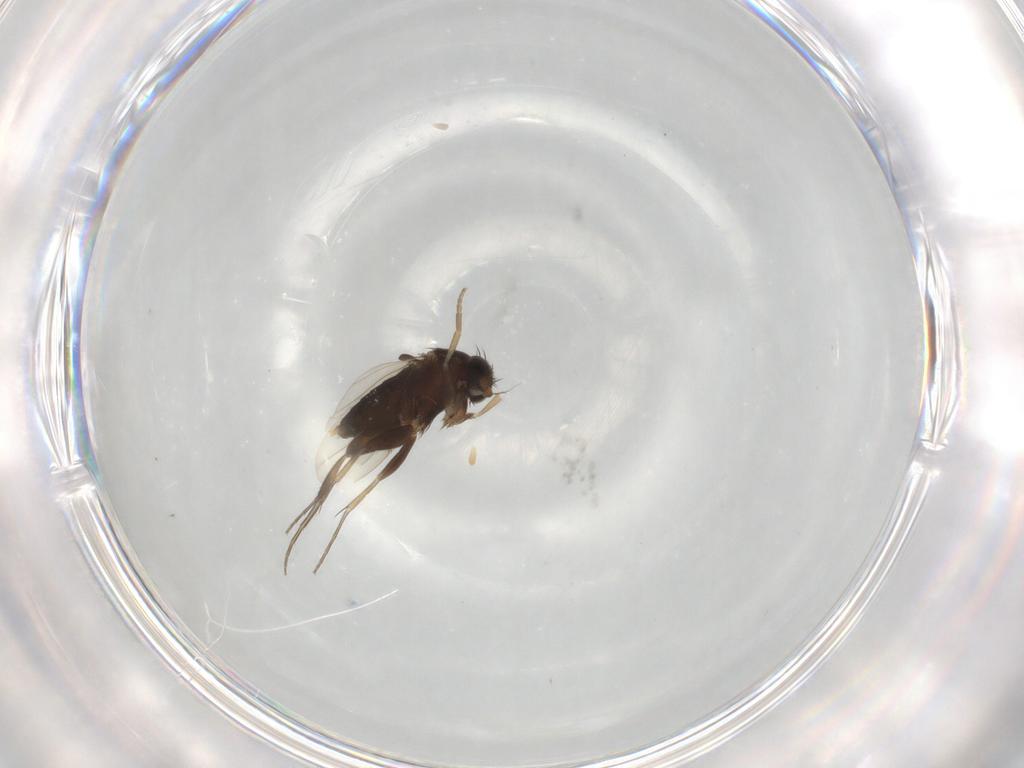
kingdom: Animalia
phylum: Arthropoda
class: Insecta
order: Diptera
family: Phoridae
